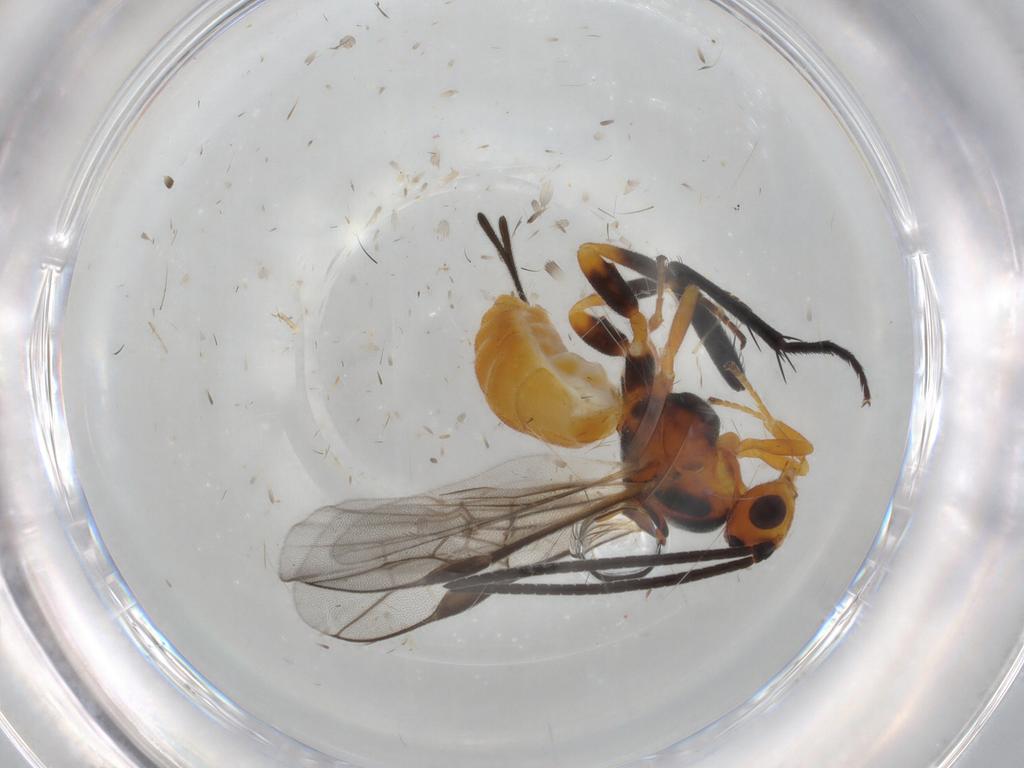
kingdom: Animalia
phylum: Arthropoda
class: Insecta
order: Hymenoptera
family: Braconidae
